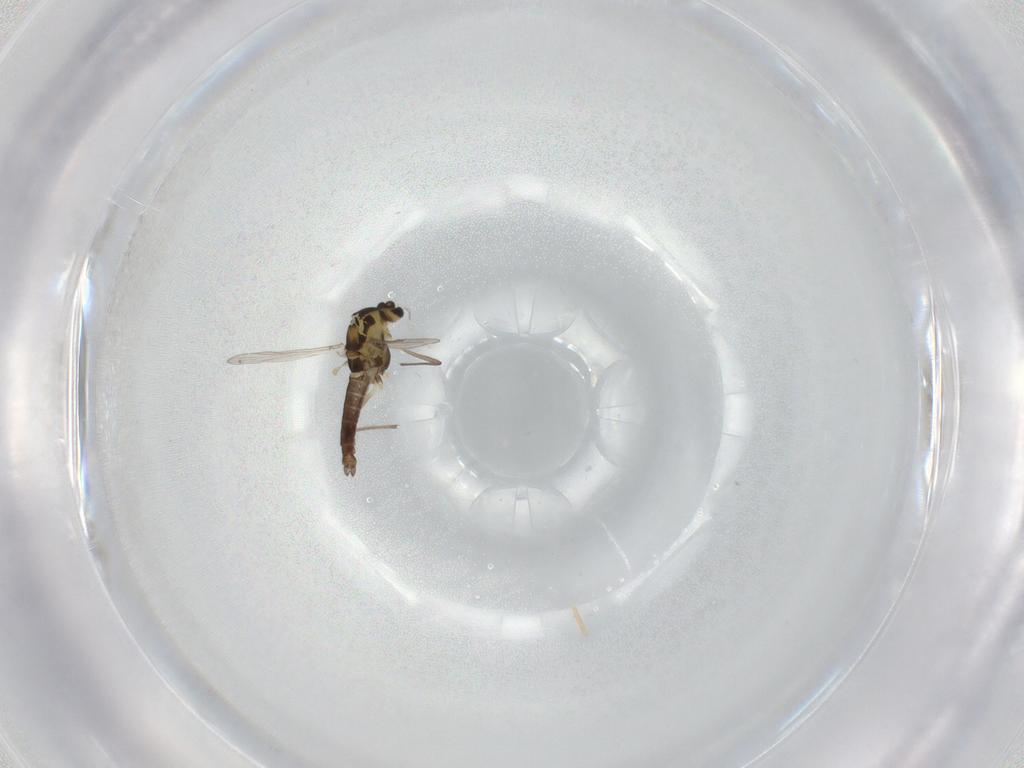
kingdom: Animalia
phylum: Arthropoda
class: Insecta
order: Diptera
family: Chironomidae
